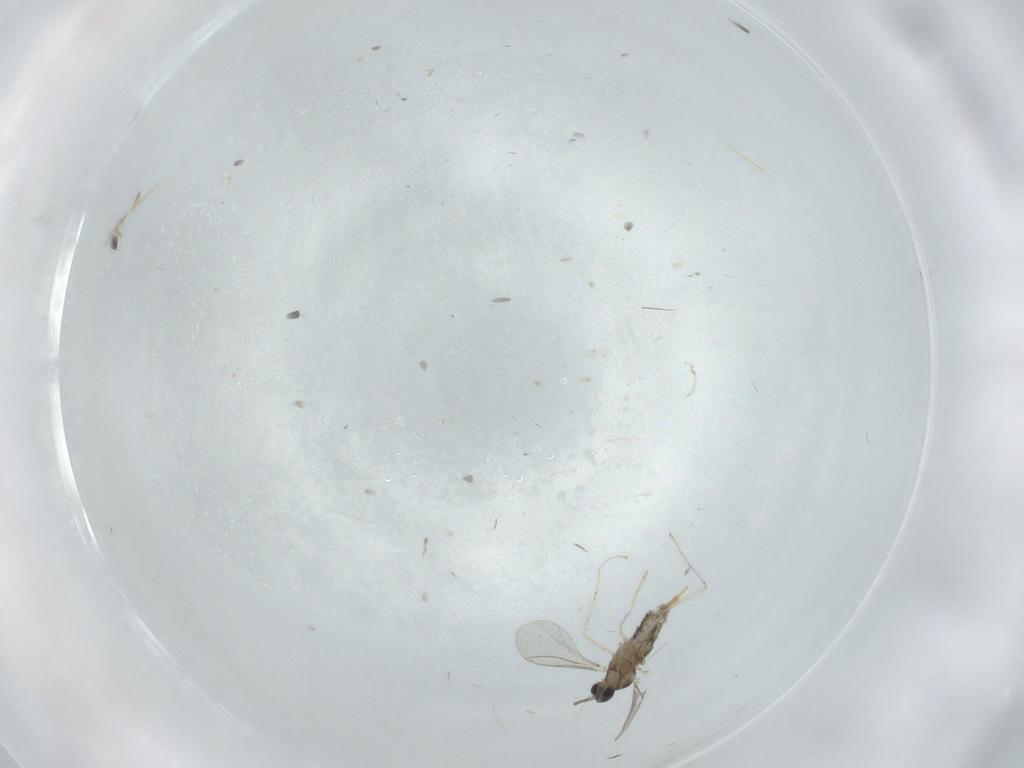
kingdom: Animalia
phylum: Arthropoda
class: Insecta
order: Diptera
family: Cecidomyiidae
